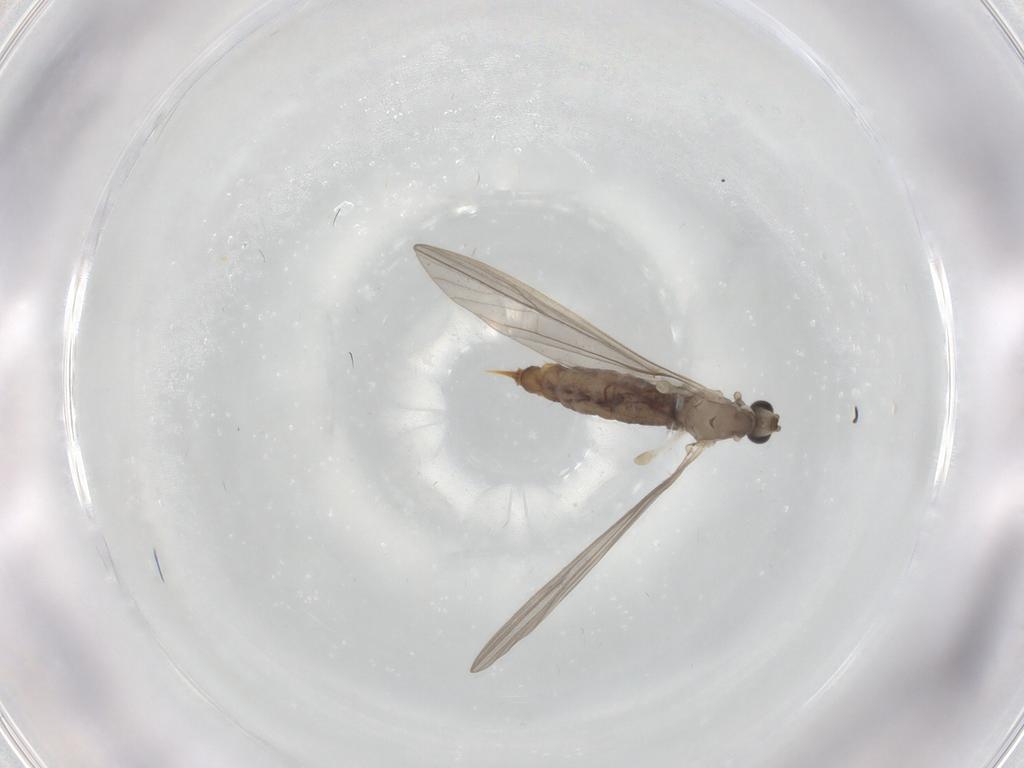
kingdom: Animalia
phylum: Arthropoda
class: Insecta
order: Diptera
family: Limoniidae
